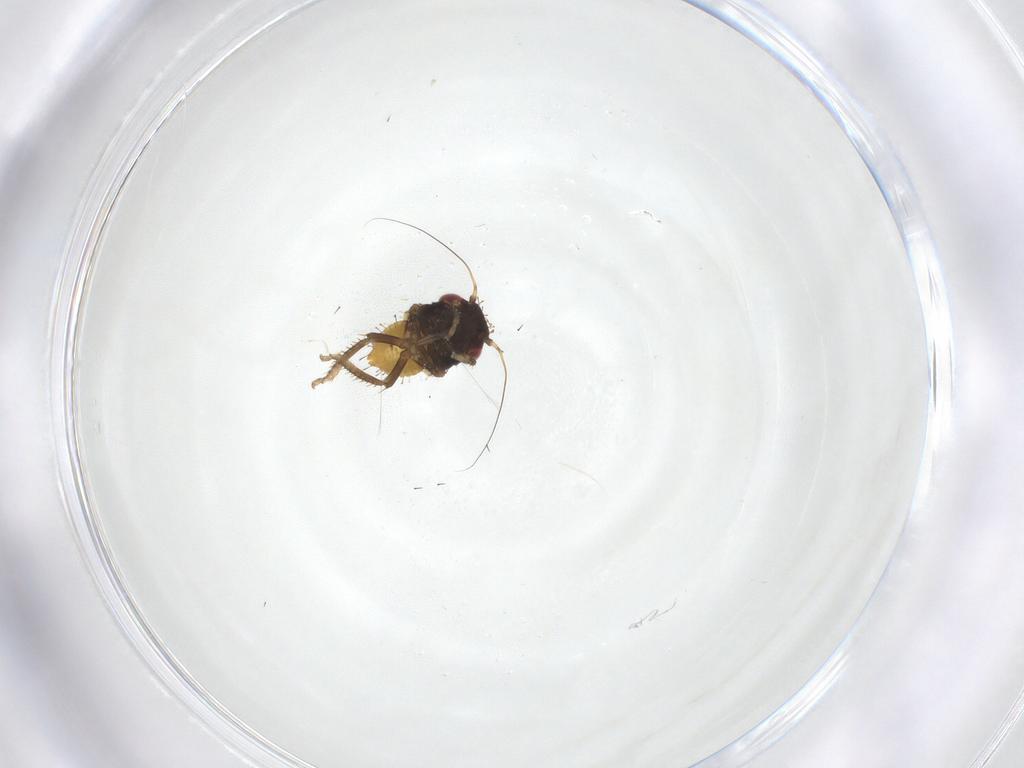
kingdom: Animalia
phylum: Arthropoda
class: Insecta
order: Hemiptera
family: Cicadellidae
